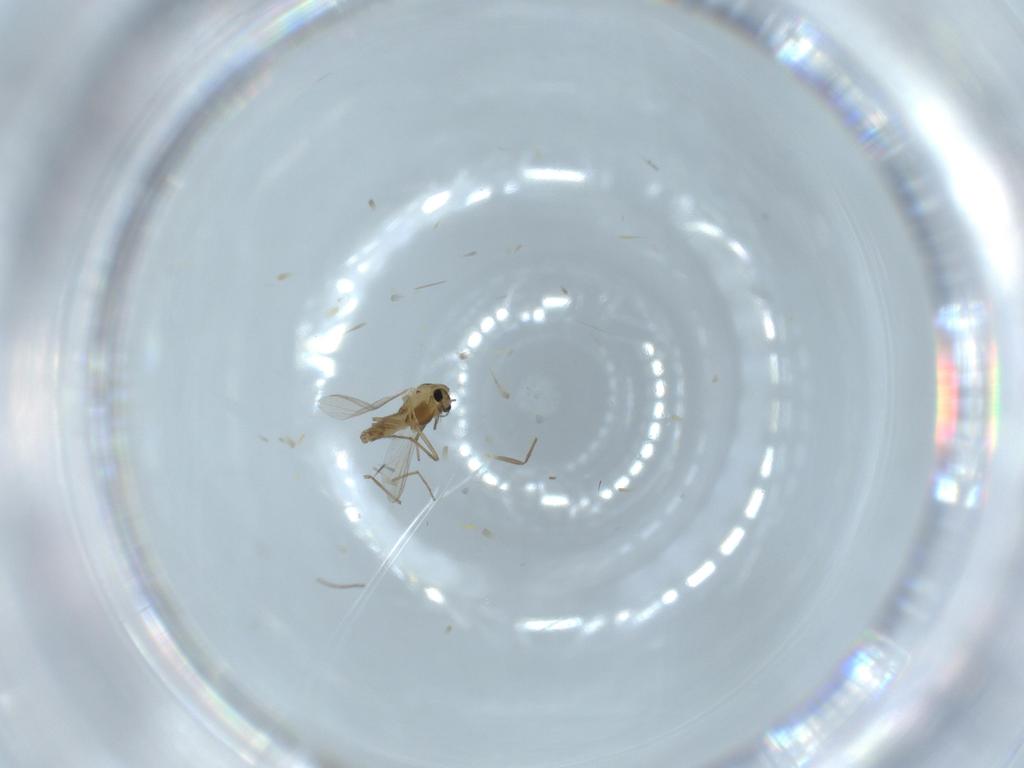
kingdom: Animalia
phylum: Arthropoda
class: Insecta
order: Diptera
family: Chironomidae
